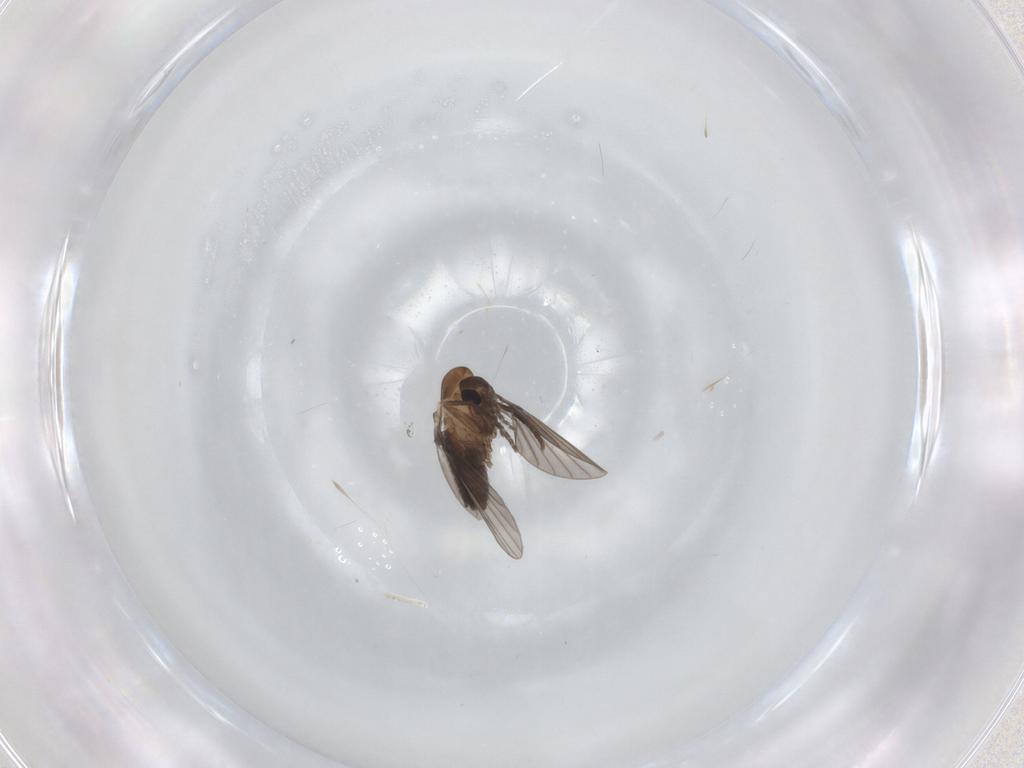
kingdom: Animalia
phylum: Arthropoda
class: Insecta
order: Diptera
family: Psychodidae
